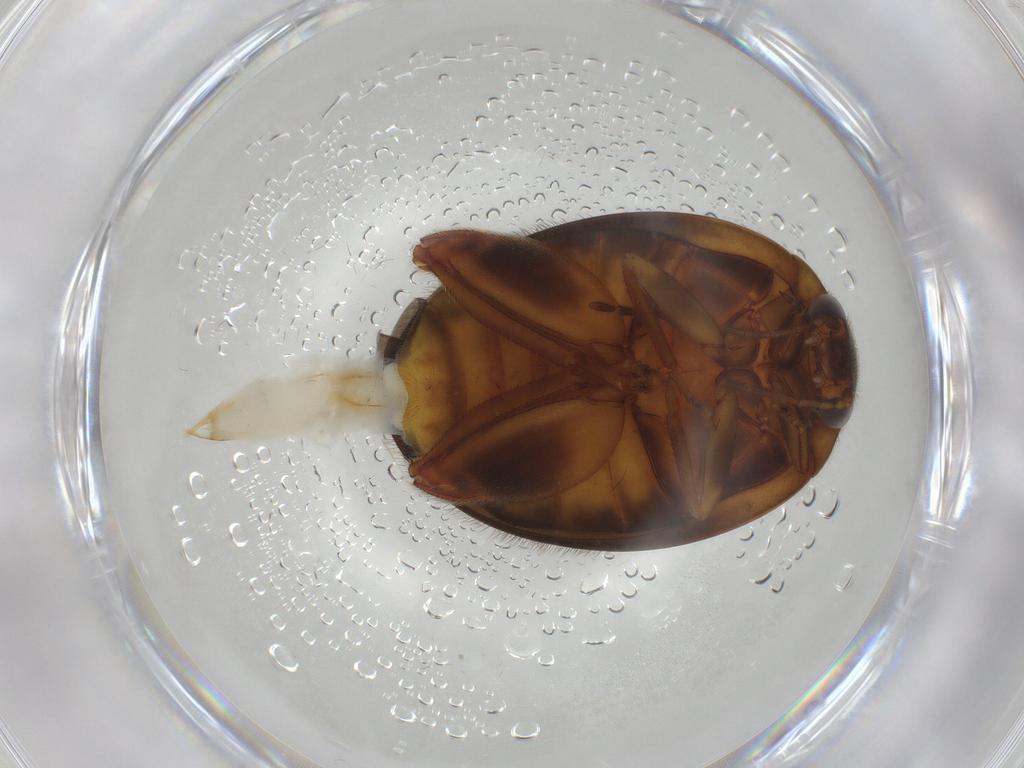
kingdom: Animalia
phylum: Arthropoda
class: Insecta
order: Coleoptera
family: Scirtidae
